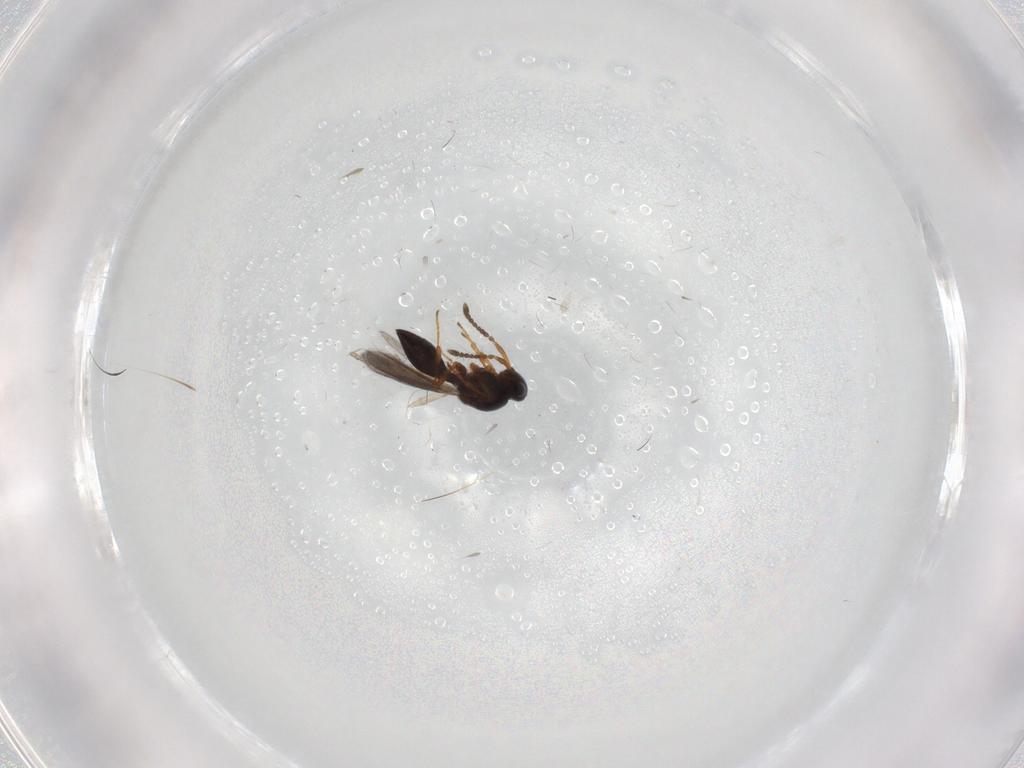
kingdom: Animalia
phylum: Arthropoda
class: Insecta
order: Hymenoptera
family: Platygastridae
